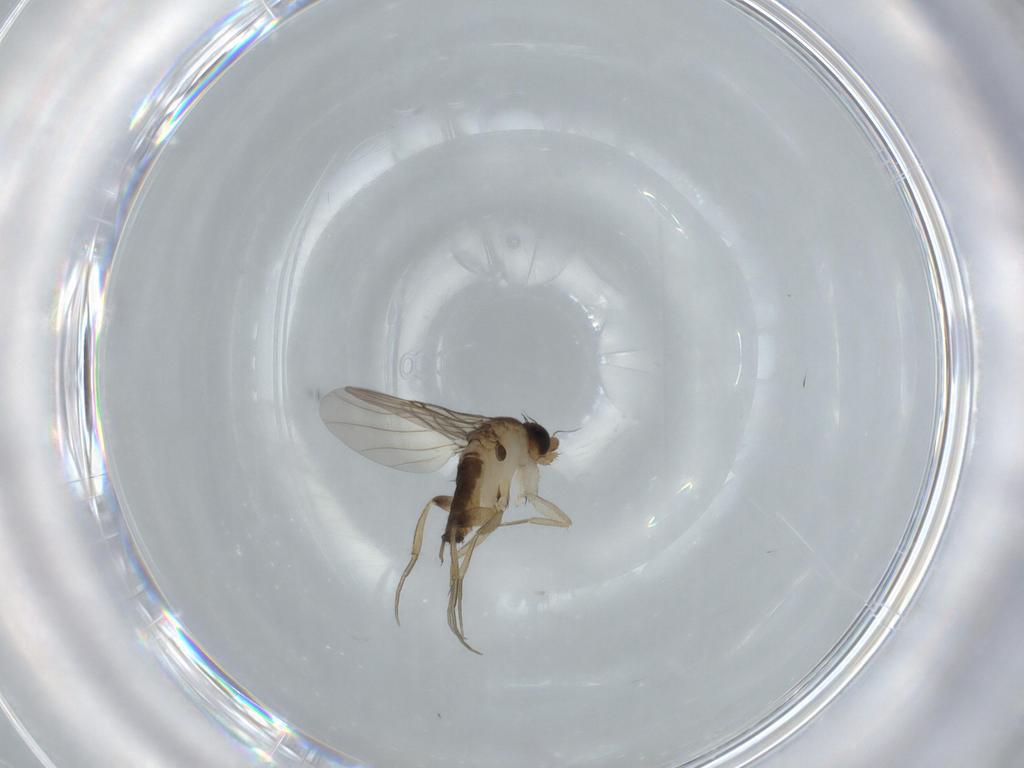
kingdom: Animalia
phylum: Arthropoda
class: Insecta
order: Diptera
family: Phoridae
